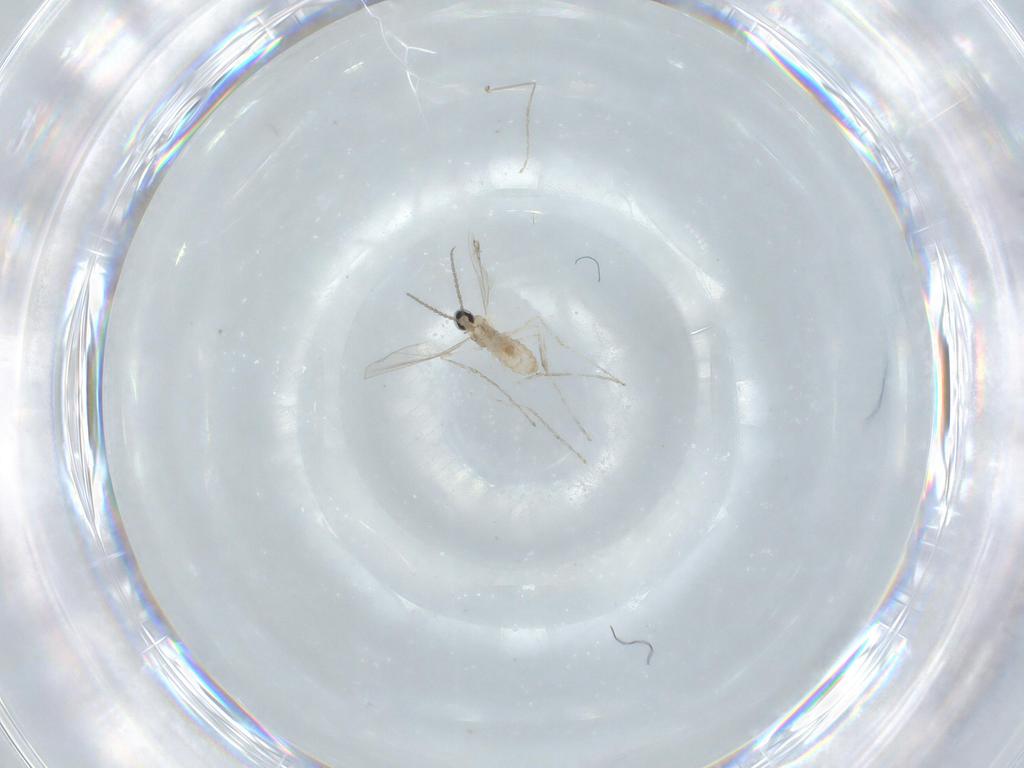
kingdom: Animalia
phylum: Arthropoda
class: Insecta
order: Diptera
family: Cecidomyiidae
